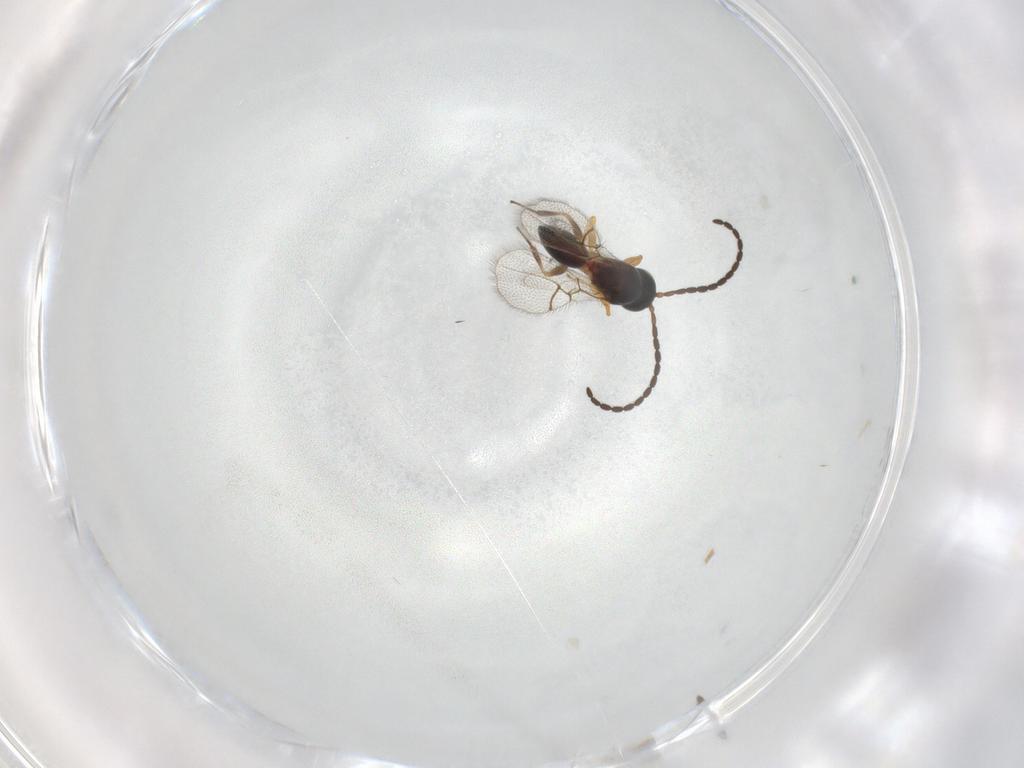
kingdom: Animalia
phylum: Arthropoda
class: Insecta
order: Hymenoptera
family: Figitidae
